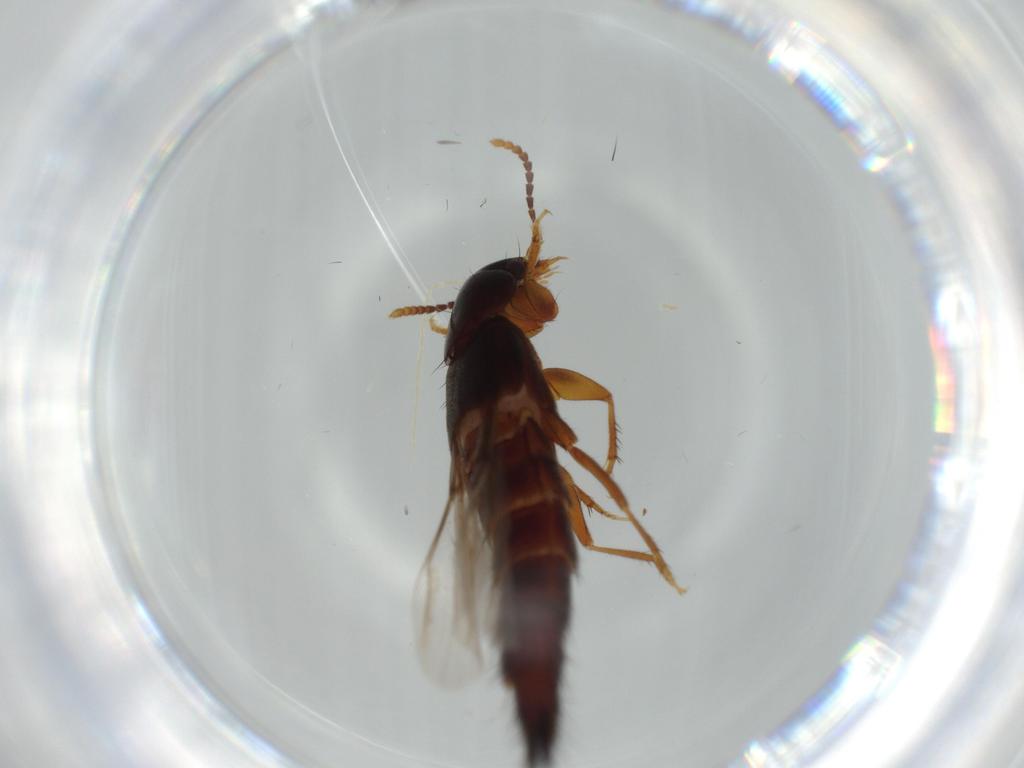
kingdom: Animalia
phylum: Arthropoda
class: Insecta
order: Coleoptera
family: Staphylinidae
